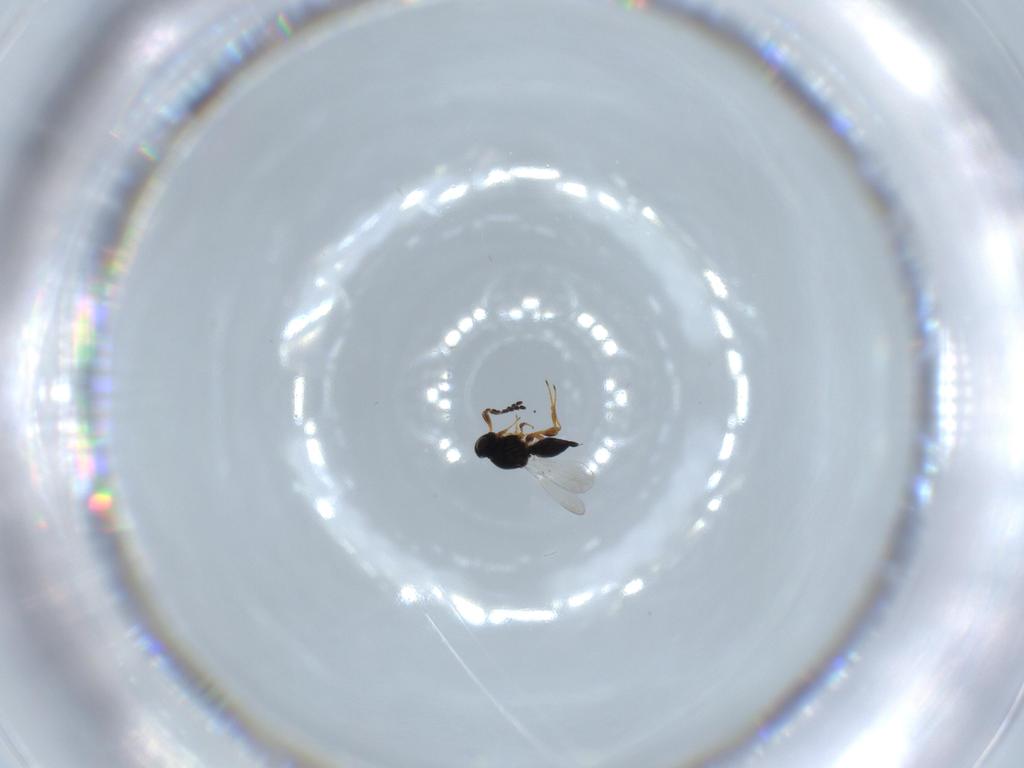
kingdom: Animalia
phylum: Arthropoda
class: Insecta
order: Hymenoptera
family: Platygastridae
